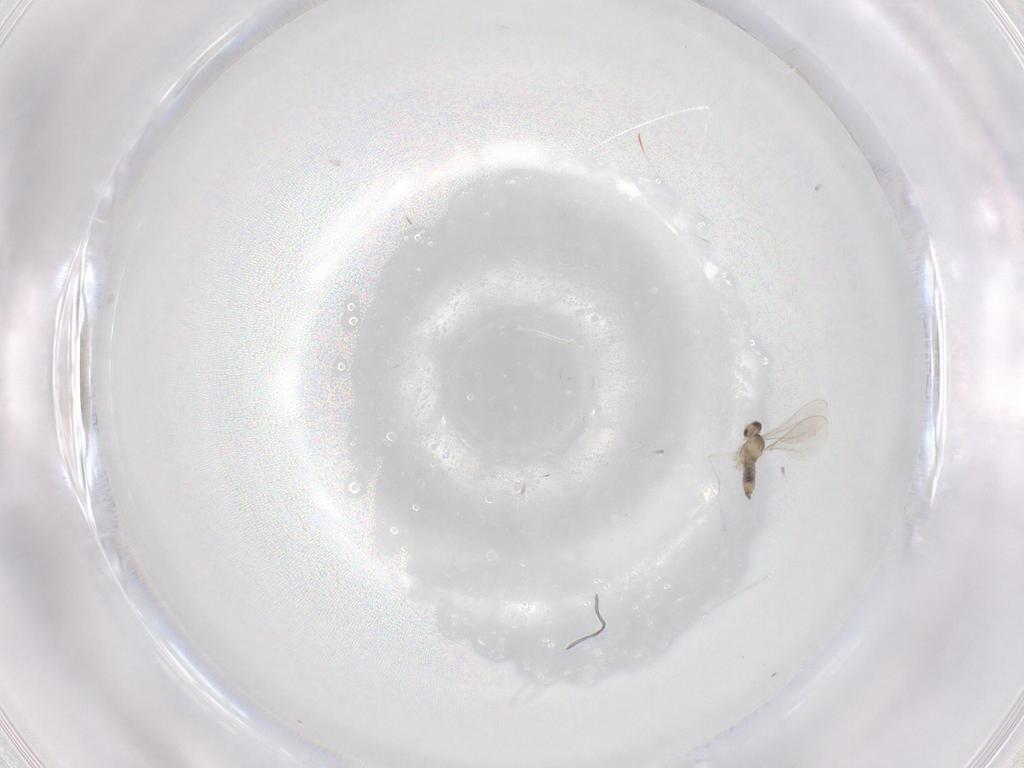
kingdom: Animalia
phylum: Arthropoda
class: Insecta
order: Diptera
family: Cecidomyiidae
